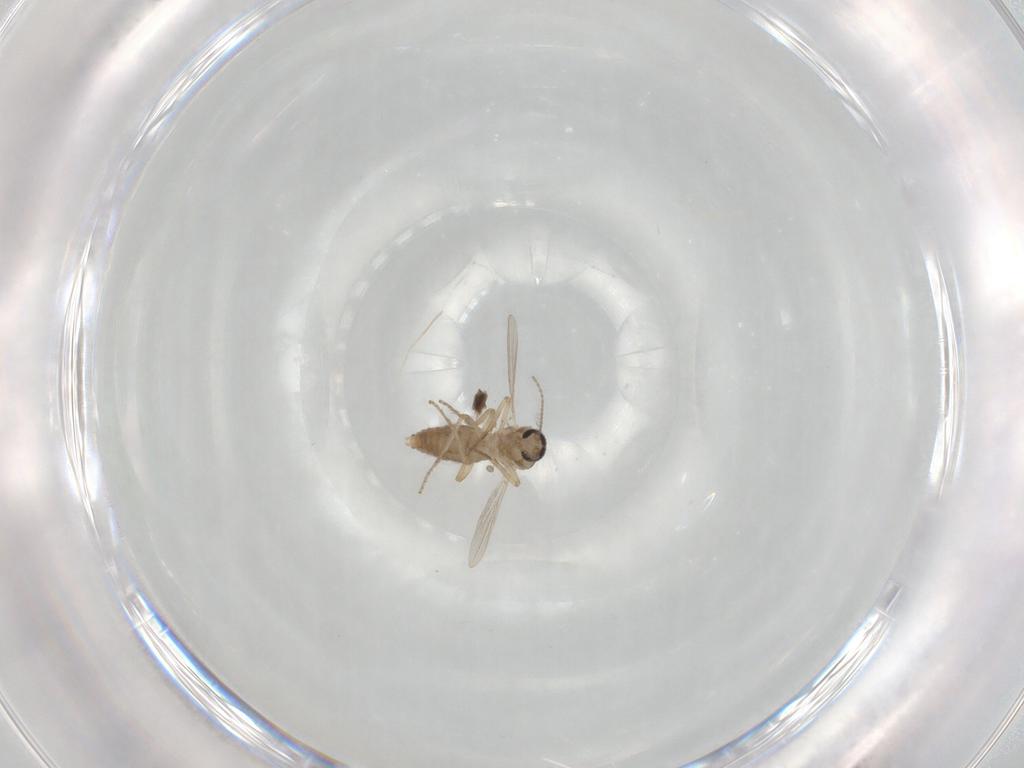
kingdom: Animalia
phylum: Arthropoda
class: Insecta
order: Diptera
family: Ceratopogonidae
